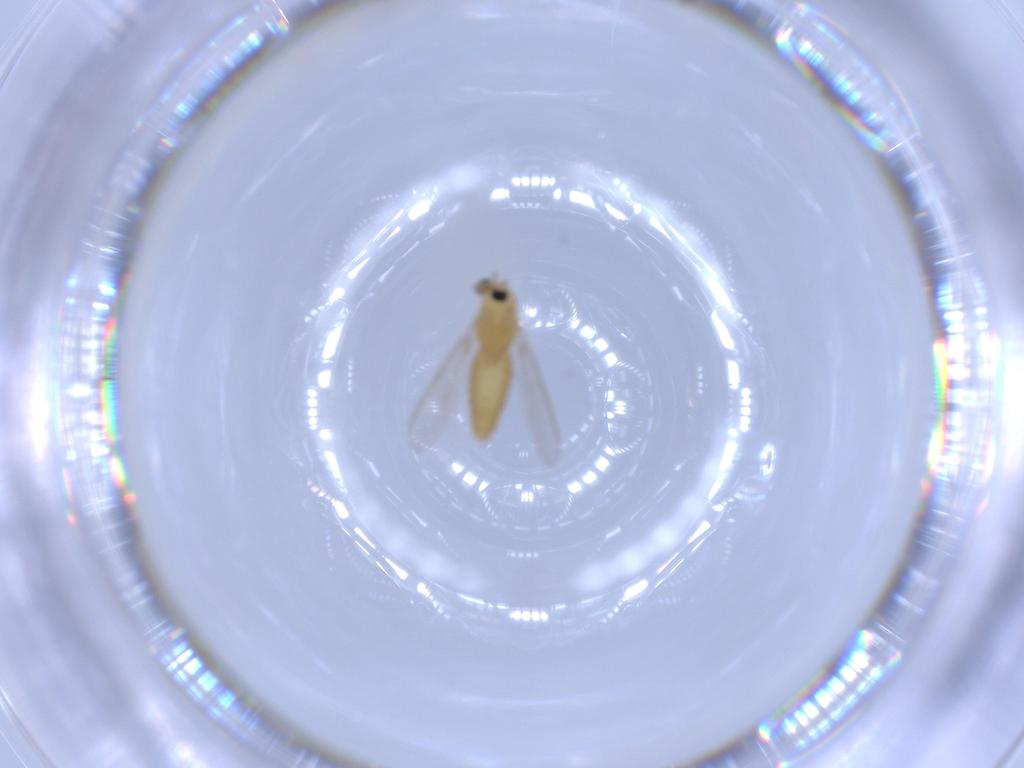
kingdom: Animalia
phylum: Arthropoda
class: Insecta
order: Diptera
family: Chironomidae
